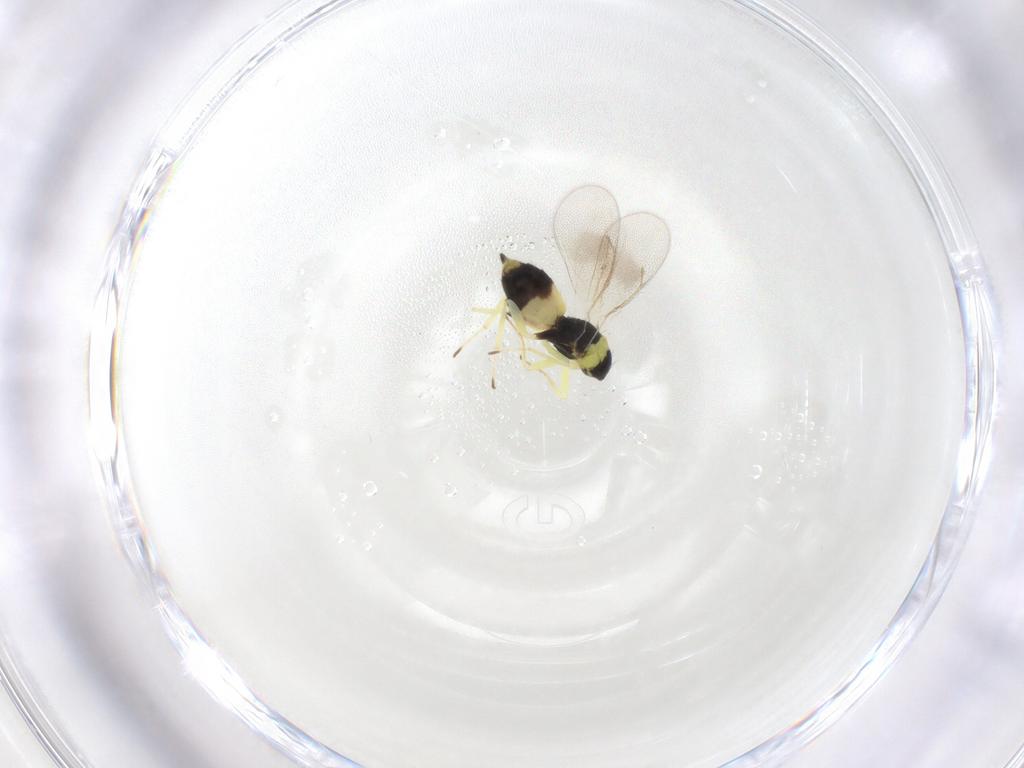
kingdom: Animalia
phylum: Arthropoda
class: Insecta
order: Hymenoptera
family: Eulophidae
